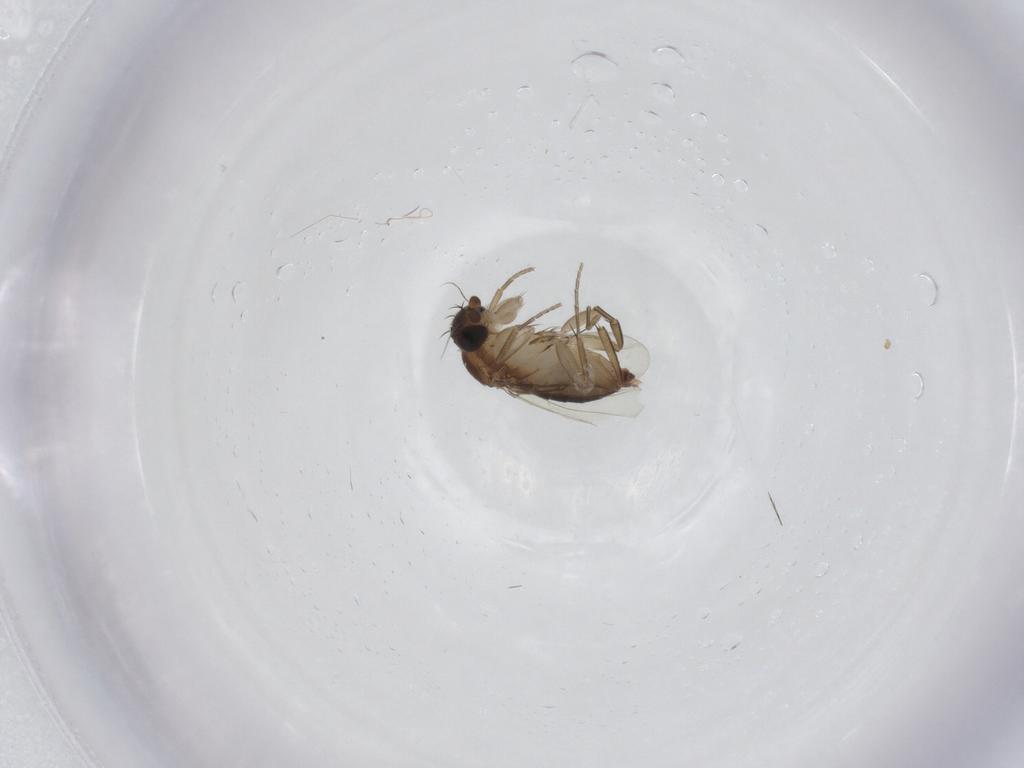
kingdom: Animalia
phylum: Arthropoda
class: Insecta
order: Diptera
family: Phoridae
